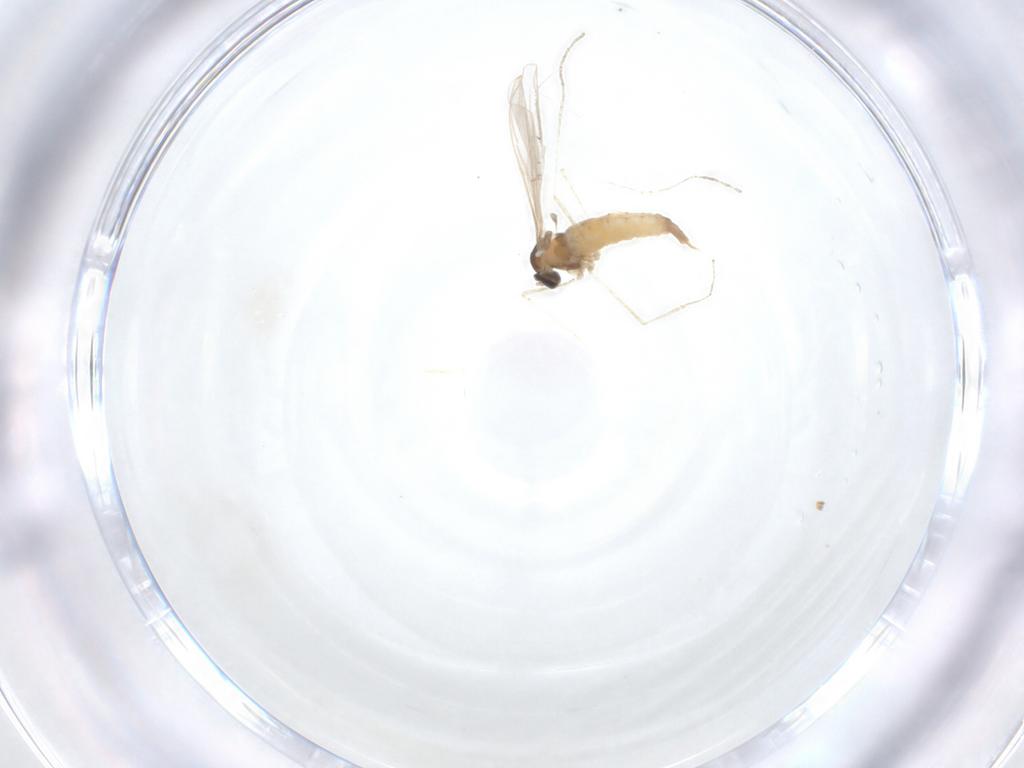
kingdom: Animalia
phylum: Arthropoda
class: Insecta
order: Diptera
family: Cecidomyiidae
